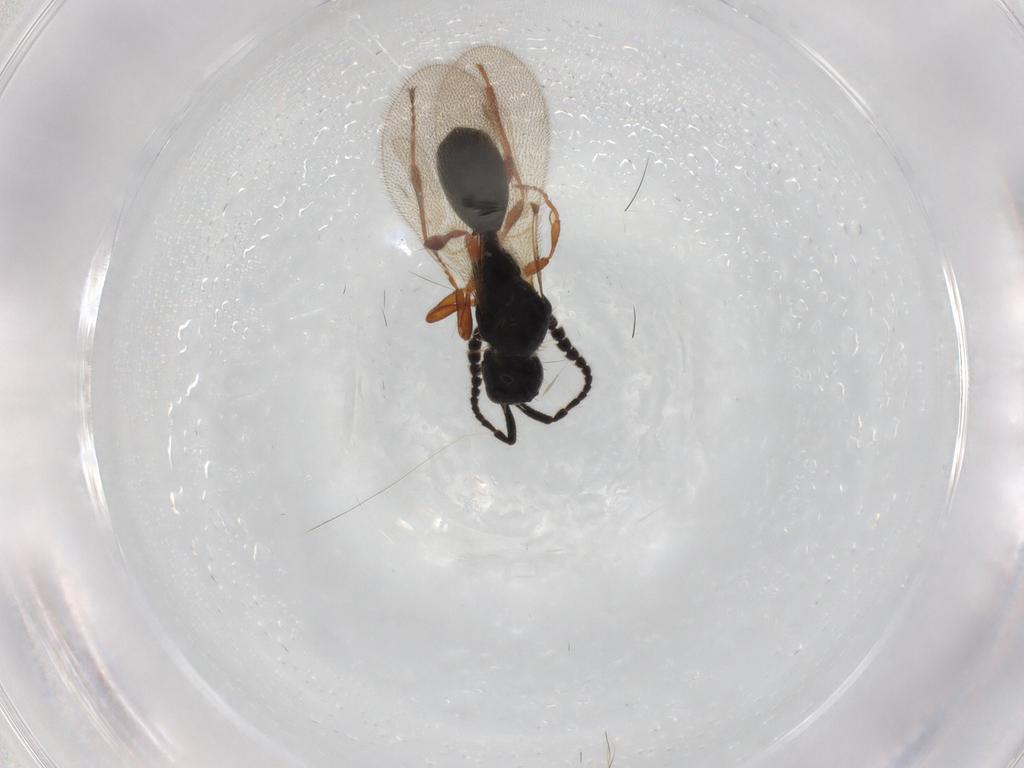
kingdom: Animalia
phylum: Arthropoda
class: Insecta
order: Hymenoptera
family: Diapriidae
